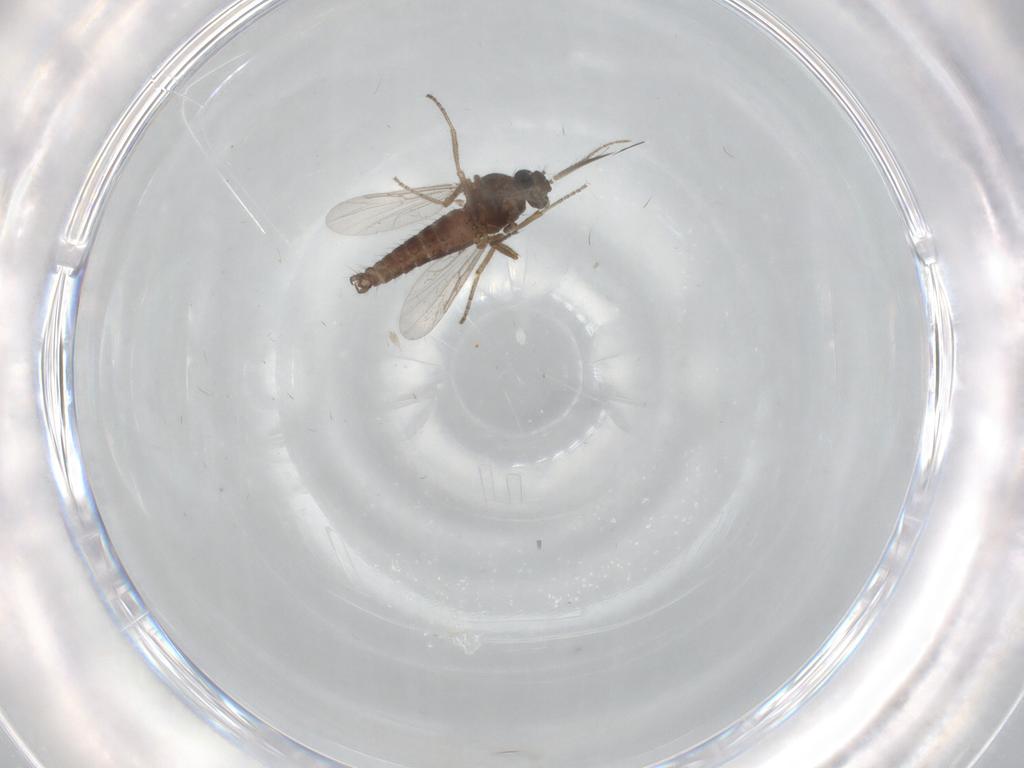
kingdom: Animalia
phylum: Arthropoda
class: Insecta
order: Diptera
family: Ceratopogonidae
